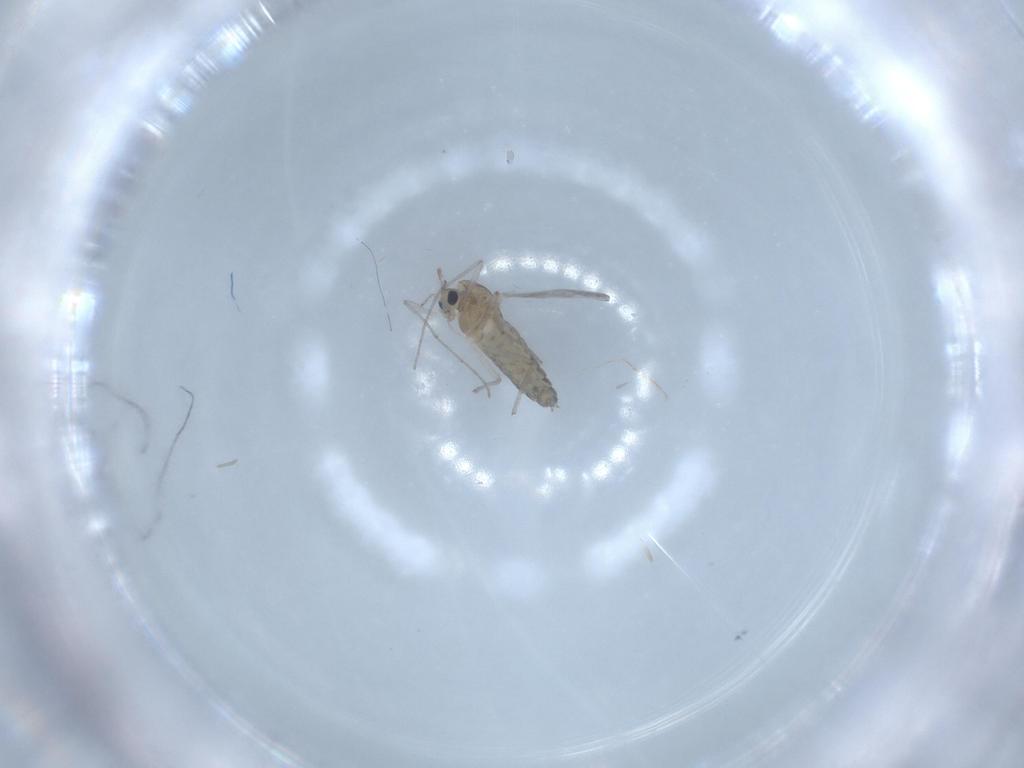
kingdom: Animalia
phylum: Arthropoda
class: Insecta
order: Diptera
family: Chironomidae
